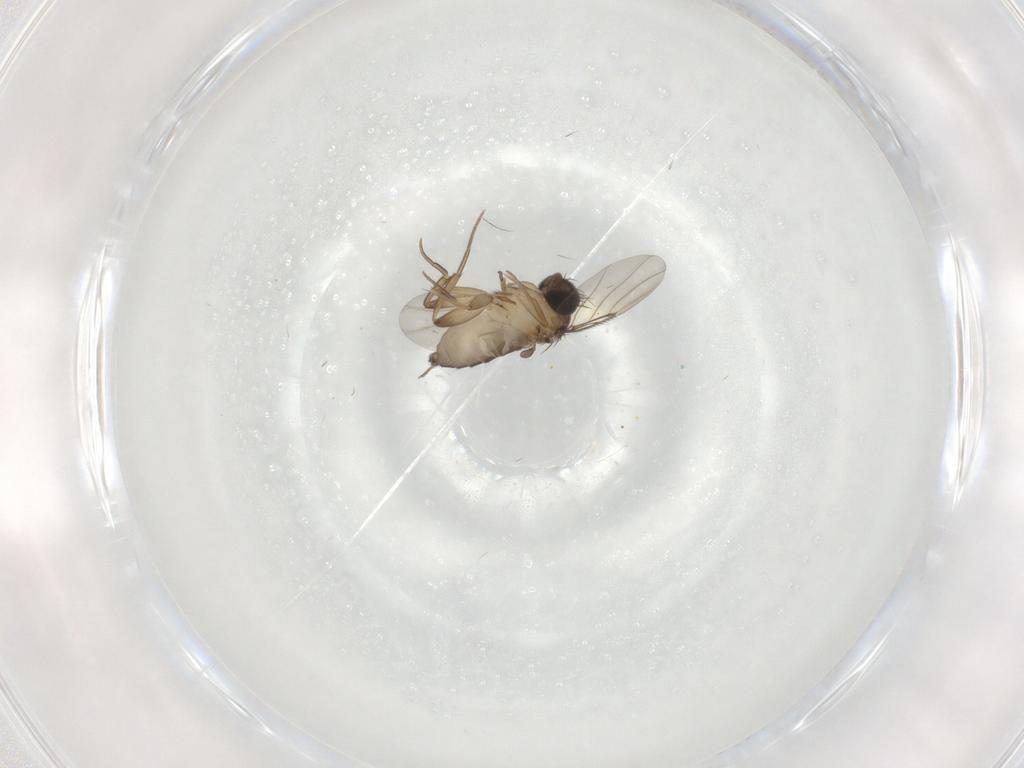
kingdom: Animalia
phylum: Arthropoda
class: Insecta
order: Diptera
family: Phoridae
